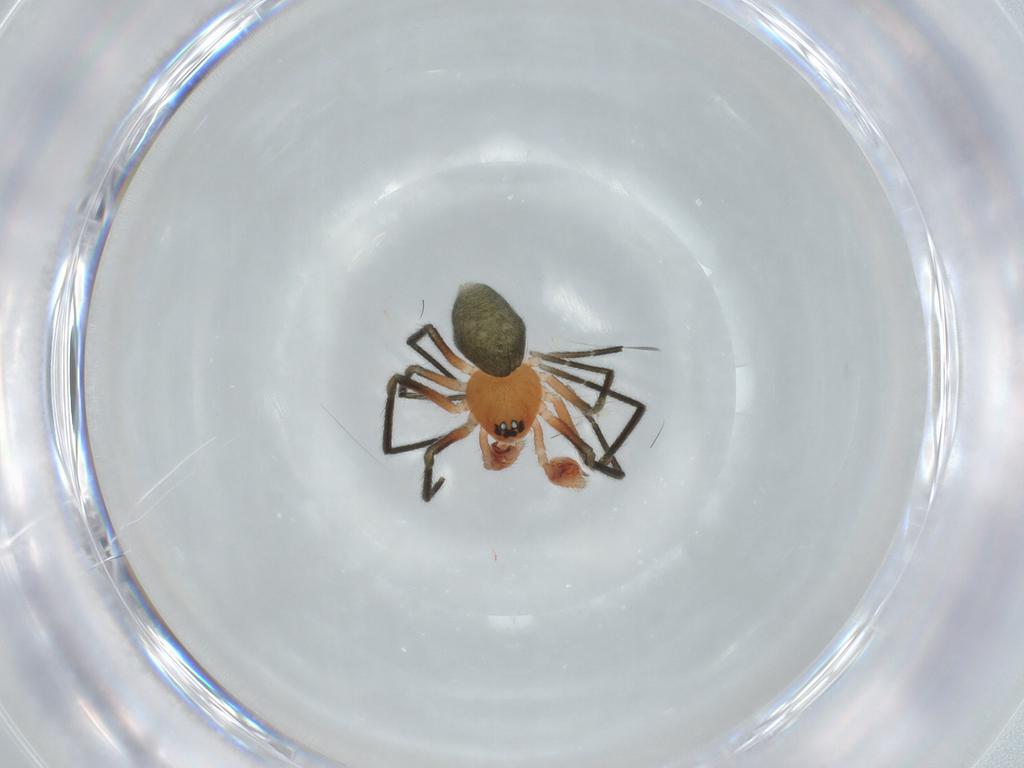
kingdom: Animalia
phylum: Arthropoda
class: Arachnida
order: Araneae
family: Linyphiidae
